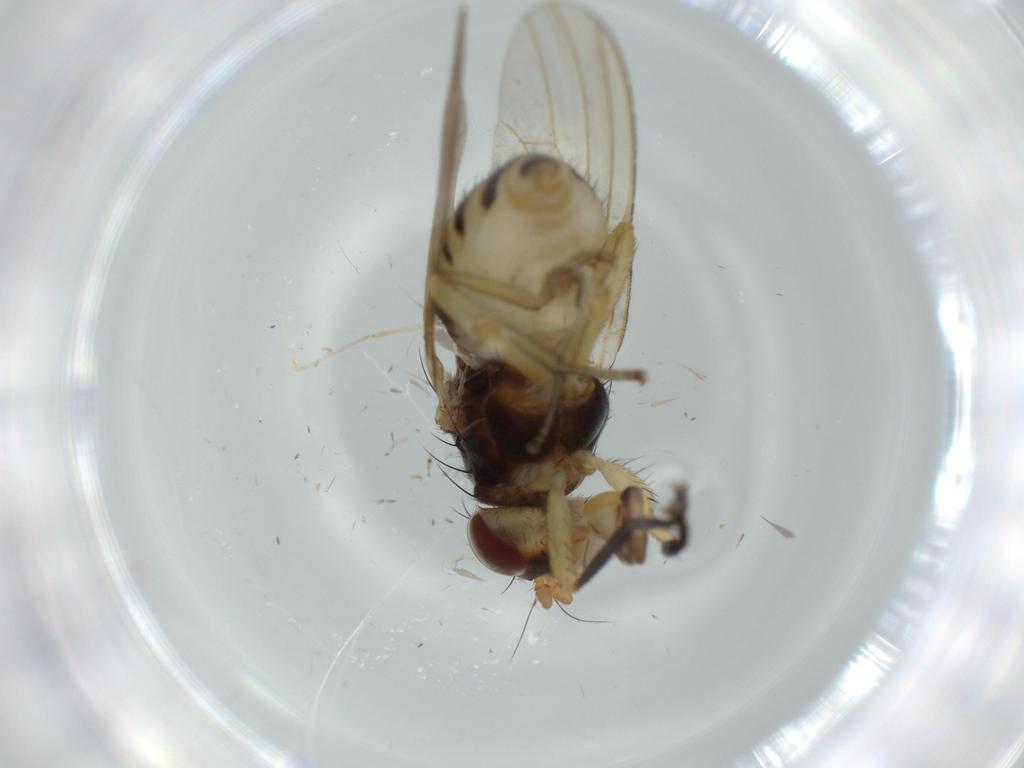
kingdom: Animalia
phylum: Arthropoda
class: Insecta
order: Diptera
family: Lauxaniidae
